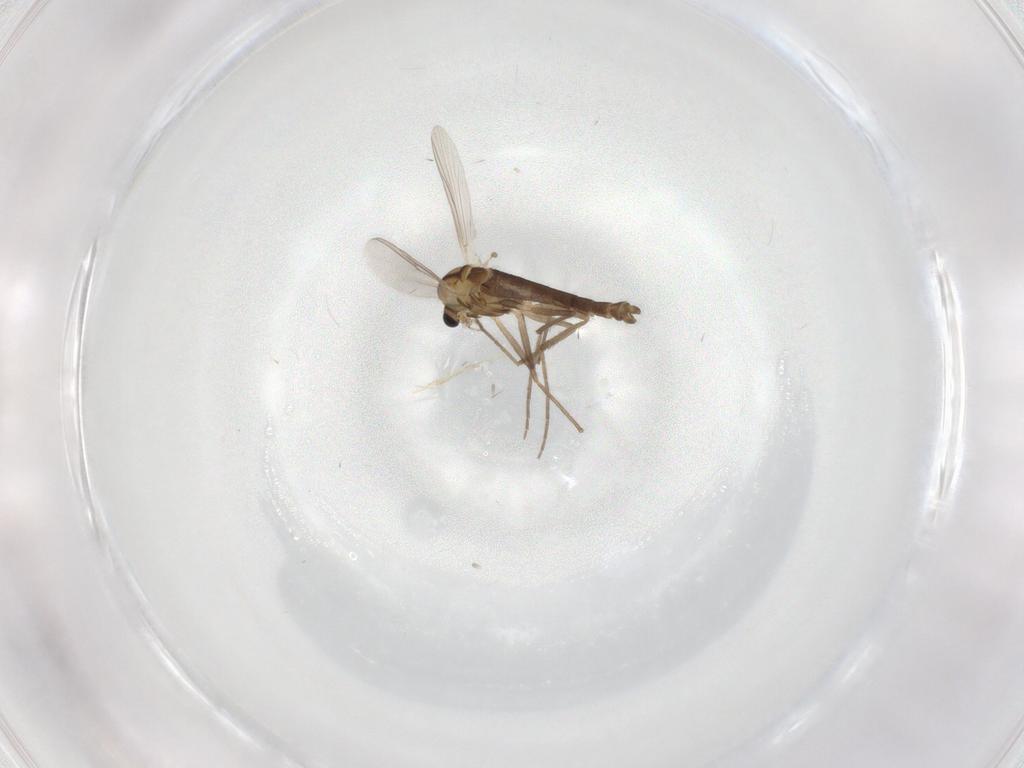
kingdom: Animalia
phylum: Arthropoda
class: Insecta
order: Diptera
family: Chironomidae
